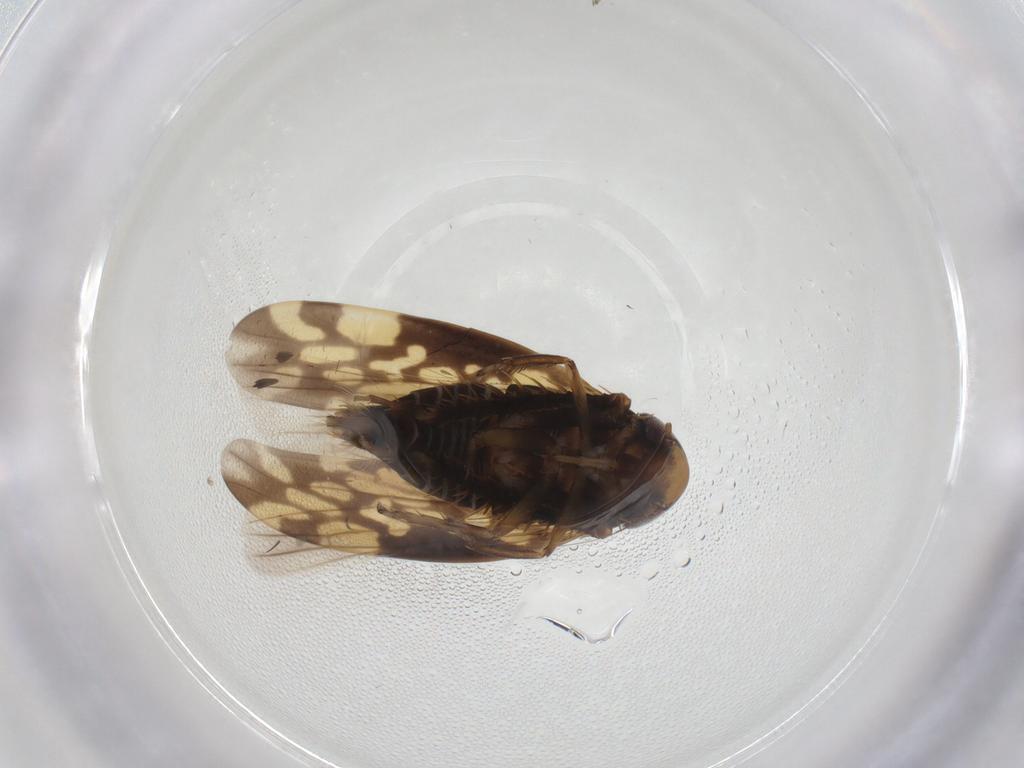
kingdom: Animalia
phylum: Arthropoda
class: Insecta
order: Hemiptera
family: Cicadellidae
